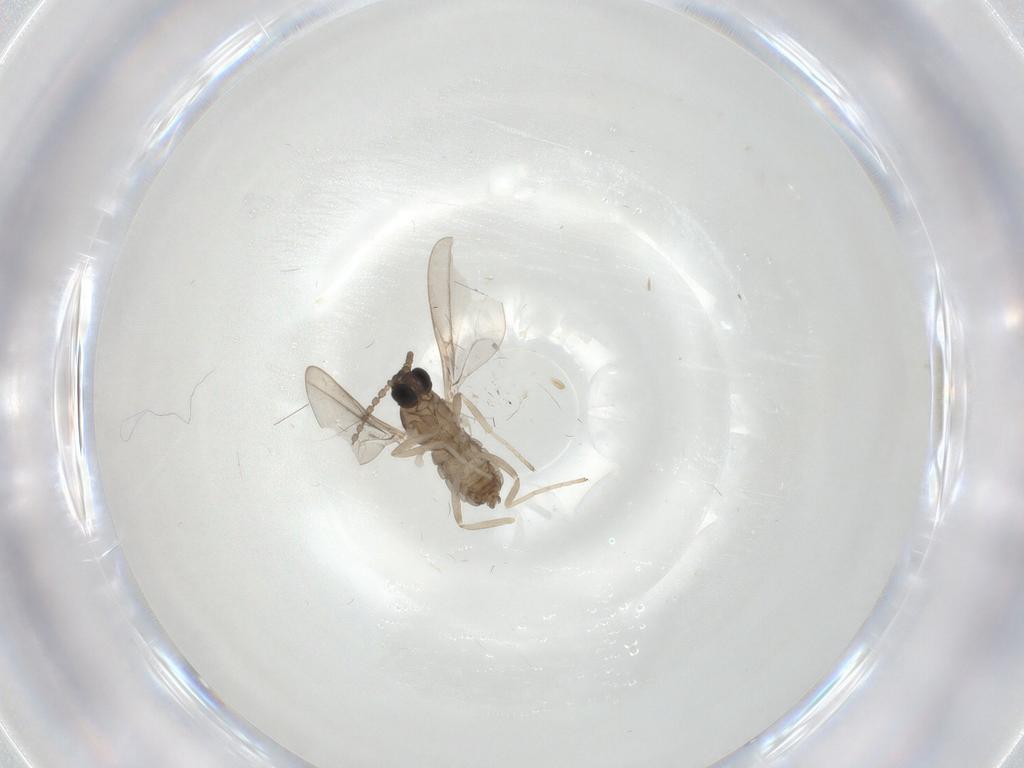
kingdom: Animalia
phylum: Arthropoda
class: Insecta
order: Diptera
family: Cecidomyiidae
